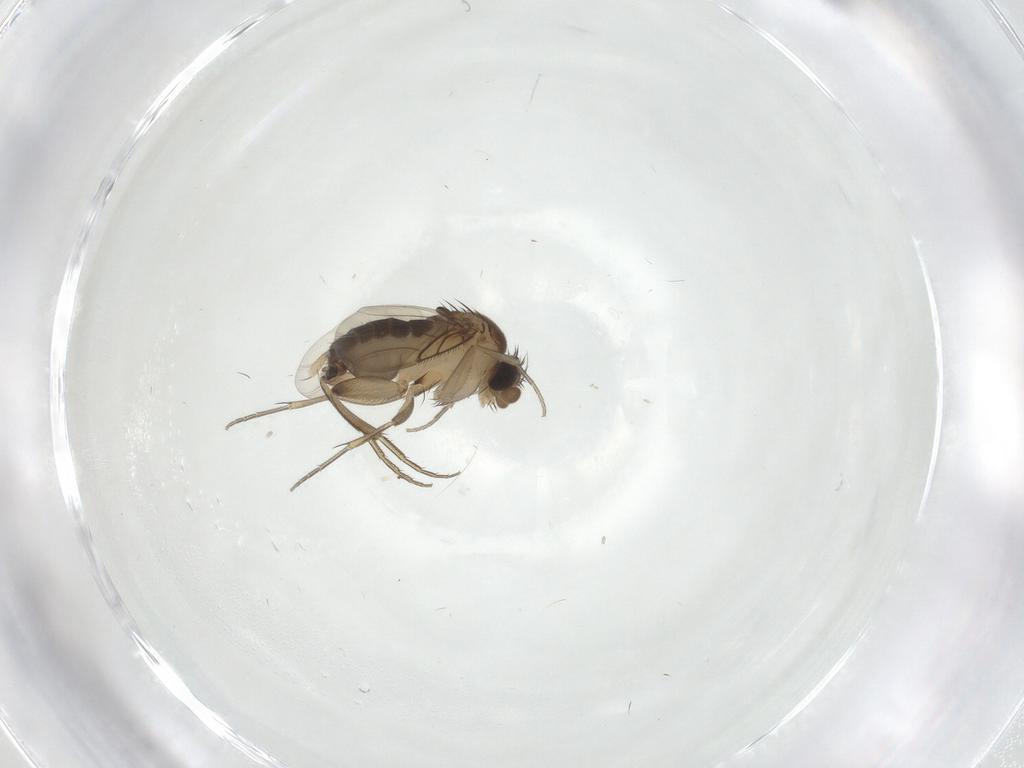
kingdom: Animalia
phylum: Arthropoda
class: Insecta
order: Diptera
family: Phoridae
